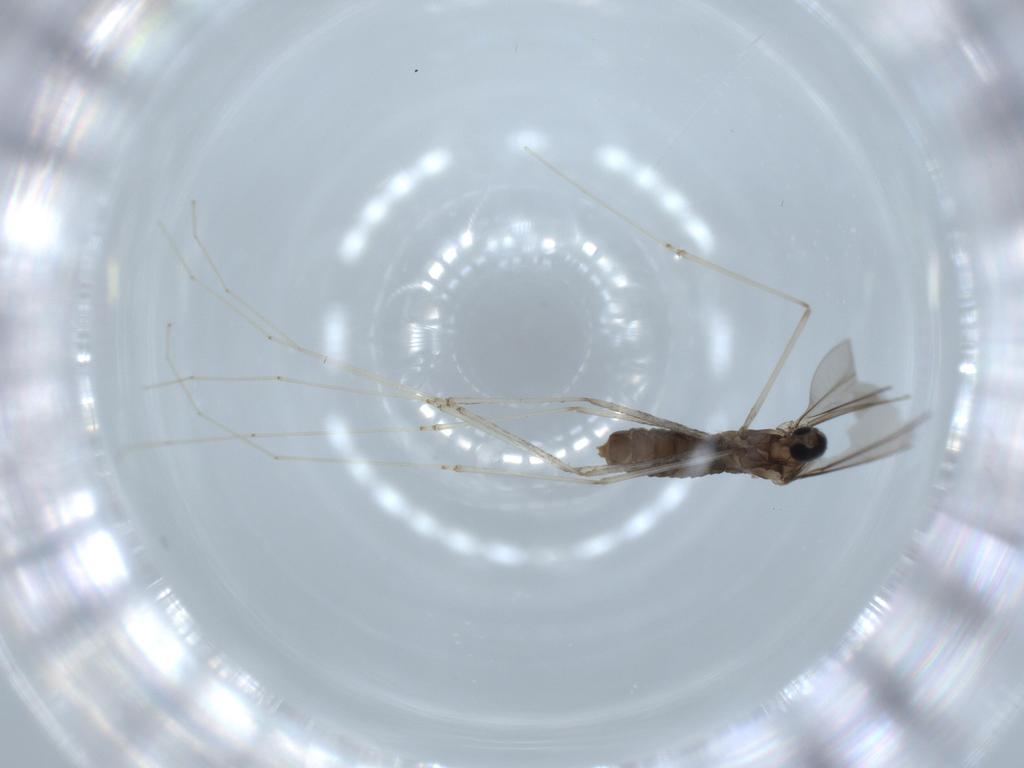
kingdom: Animalia
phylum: Arthropoda
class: Insecta
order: Diptera
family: Cecidomyiidae
